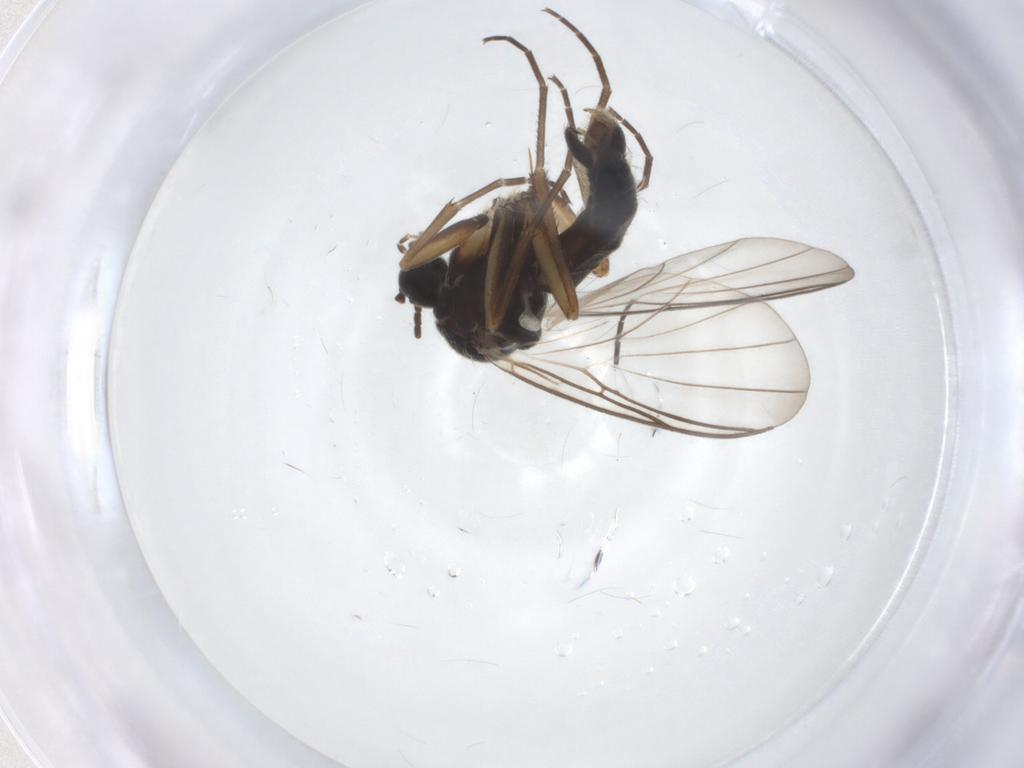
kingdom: Animalia
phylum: Arthropoda
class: Insecta
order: Diptera
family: Mycetophilidae
